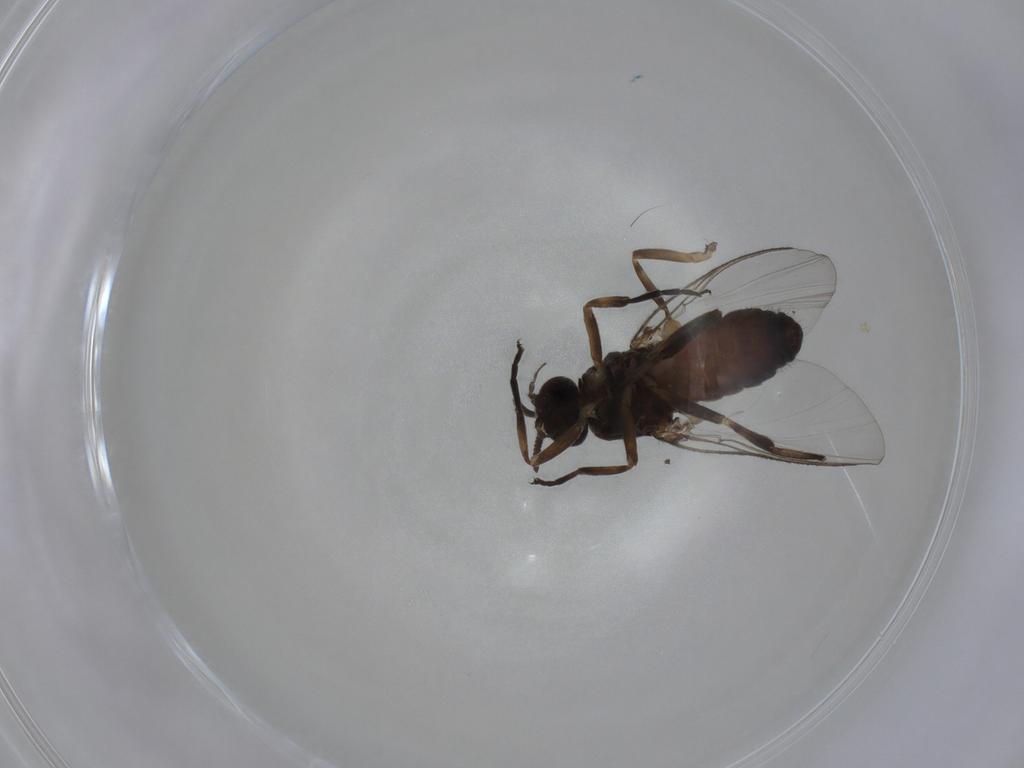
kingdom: Animalia
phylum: Arthropoda
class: Insecta
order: Diptera
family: Simuliidae
